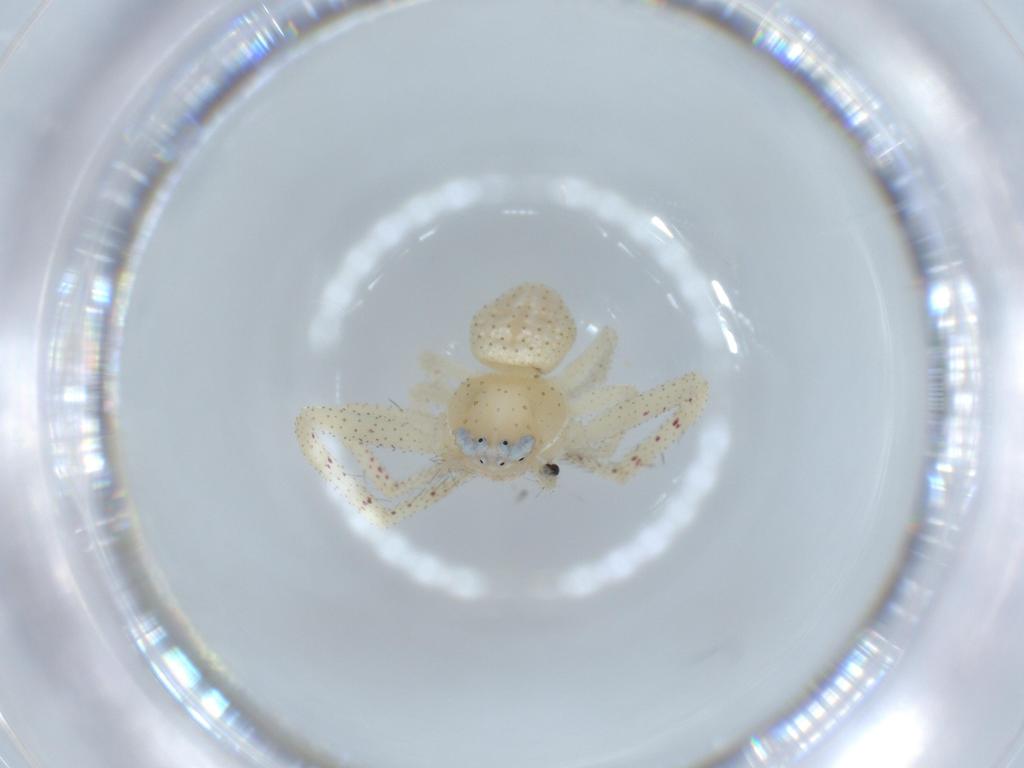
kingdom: Animalia
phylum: Arthropoda
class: Arachnida
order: Araneae
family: Thomisidae
